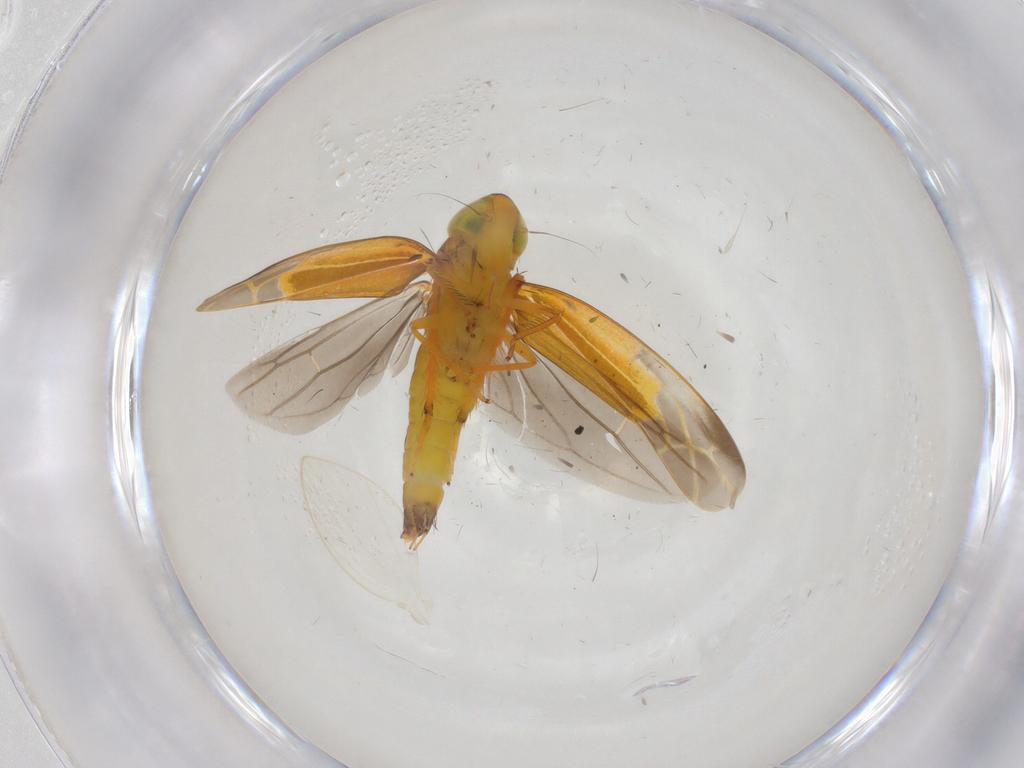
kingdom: Animalia
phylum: Arthropoda
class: Insecta
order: Hemiptera
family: Cicadellidae
